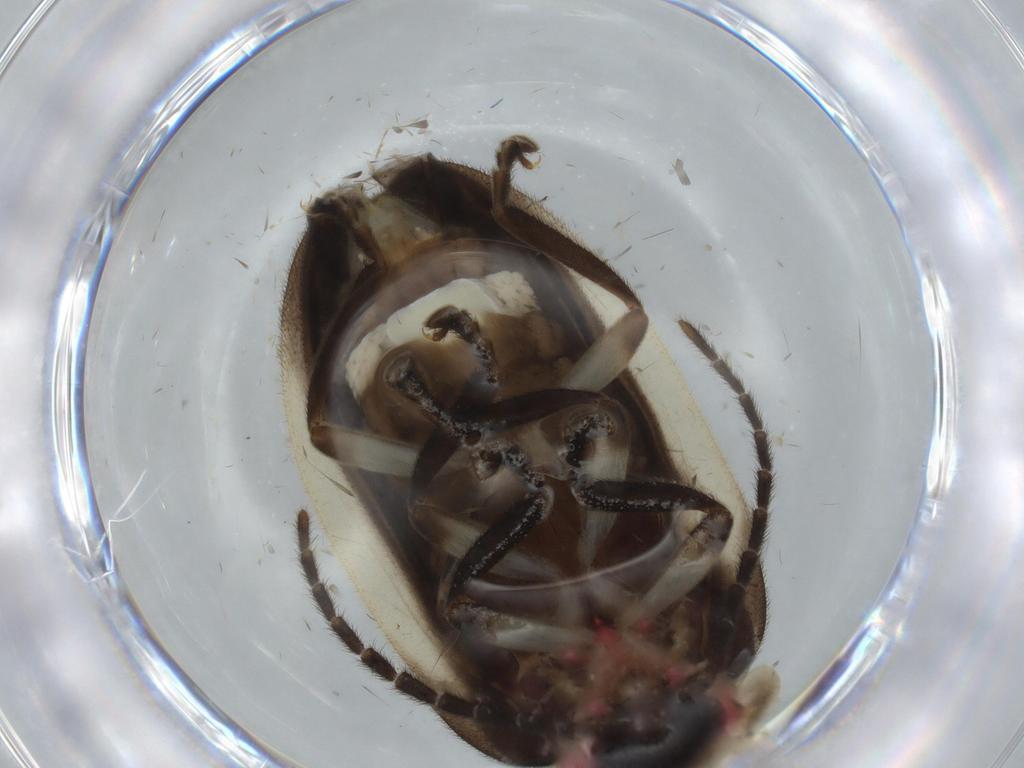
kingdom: Animalia
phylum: Arthropoda
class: Insecta
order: Coleoptera
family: Lampyridae
